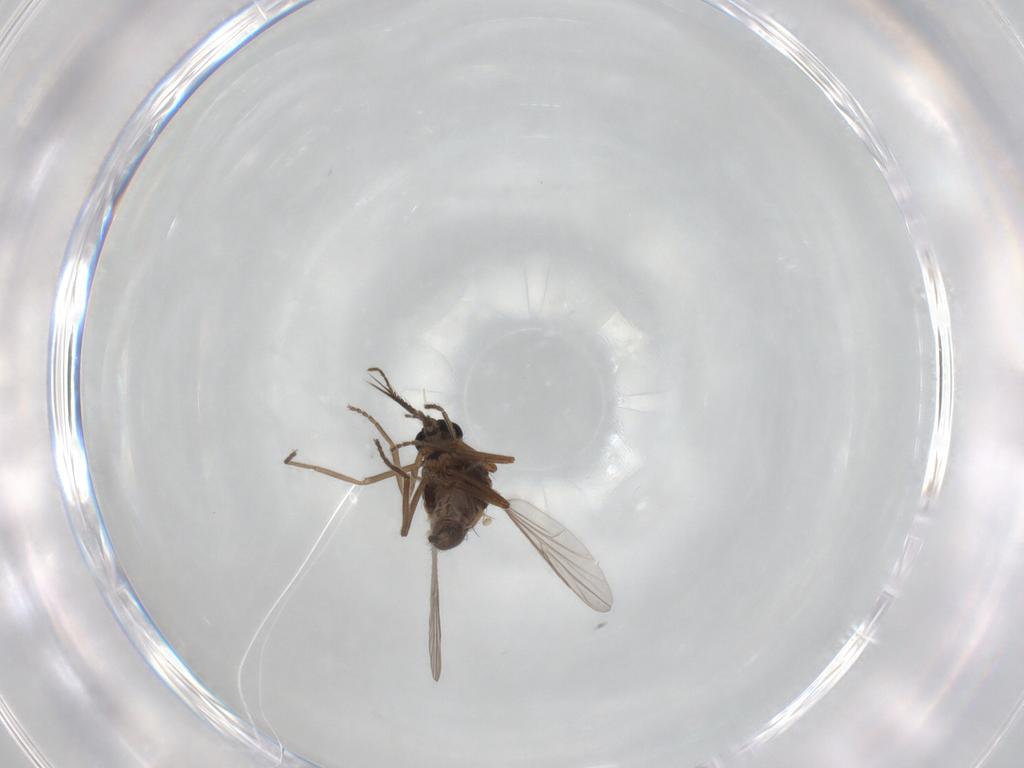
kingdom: Animalia
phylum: Arthropoda
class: Insecta
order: Diptera
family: Ceratopogonidae
